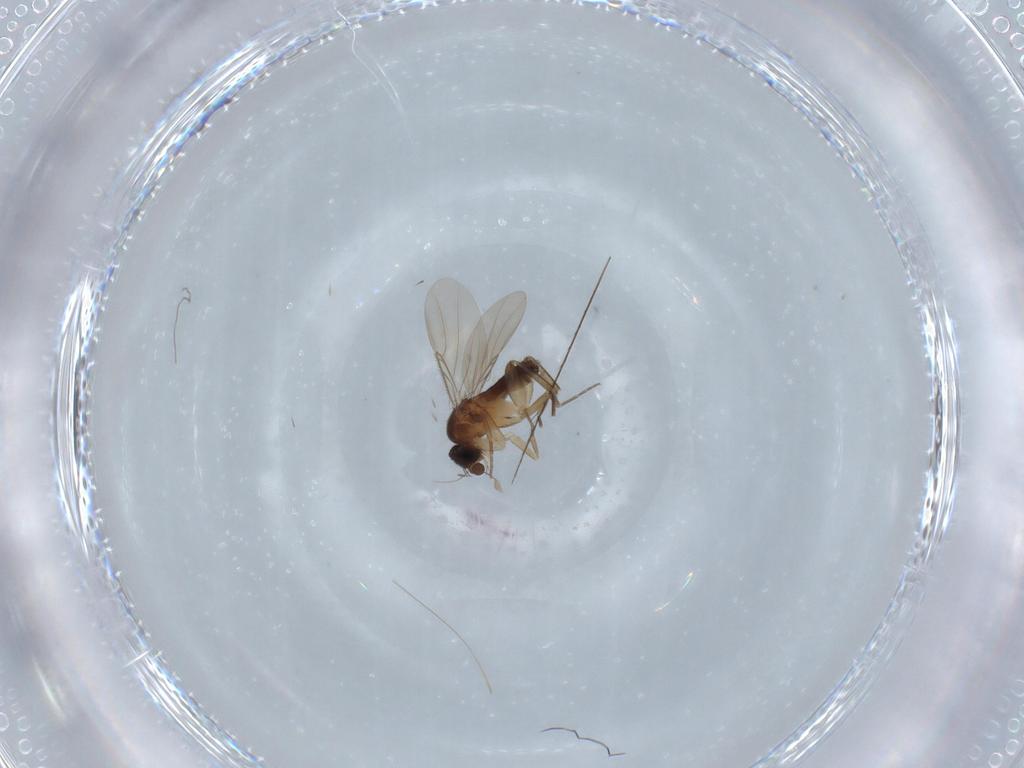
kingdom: Animalia
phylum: Arthropoda
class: Insecta
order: Diptera
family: Phoridae
